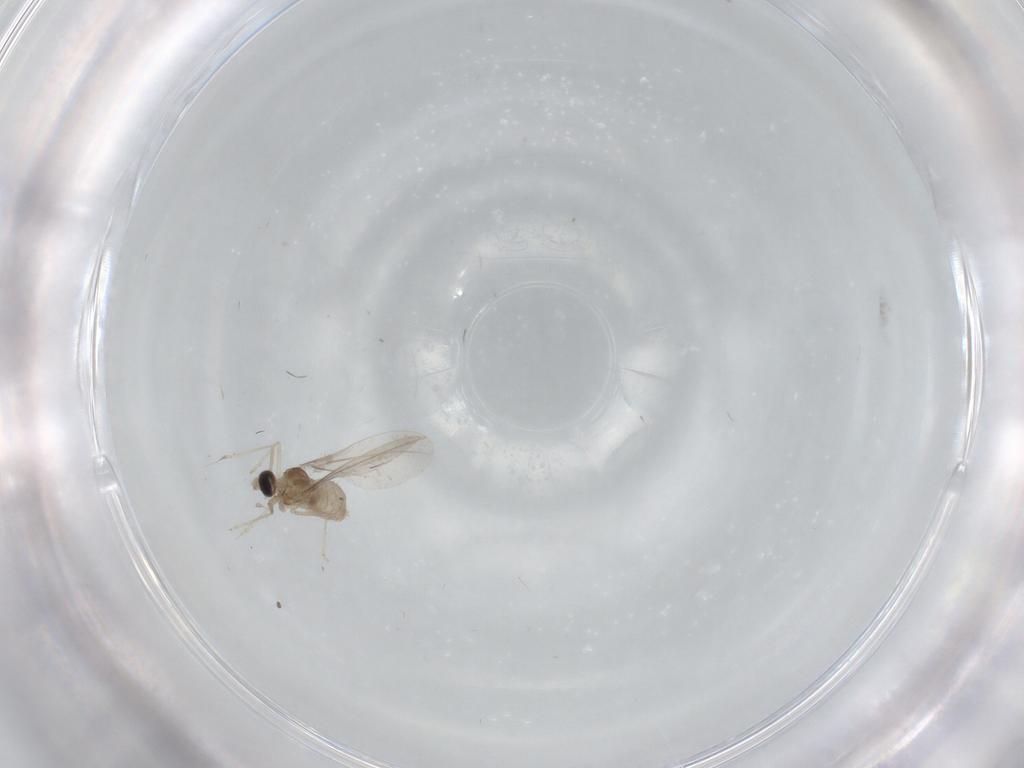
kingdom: Animalia
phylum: Arthropoda
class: Insecta
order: Diptera
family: Cecidomyiidae
